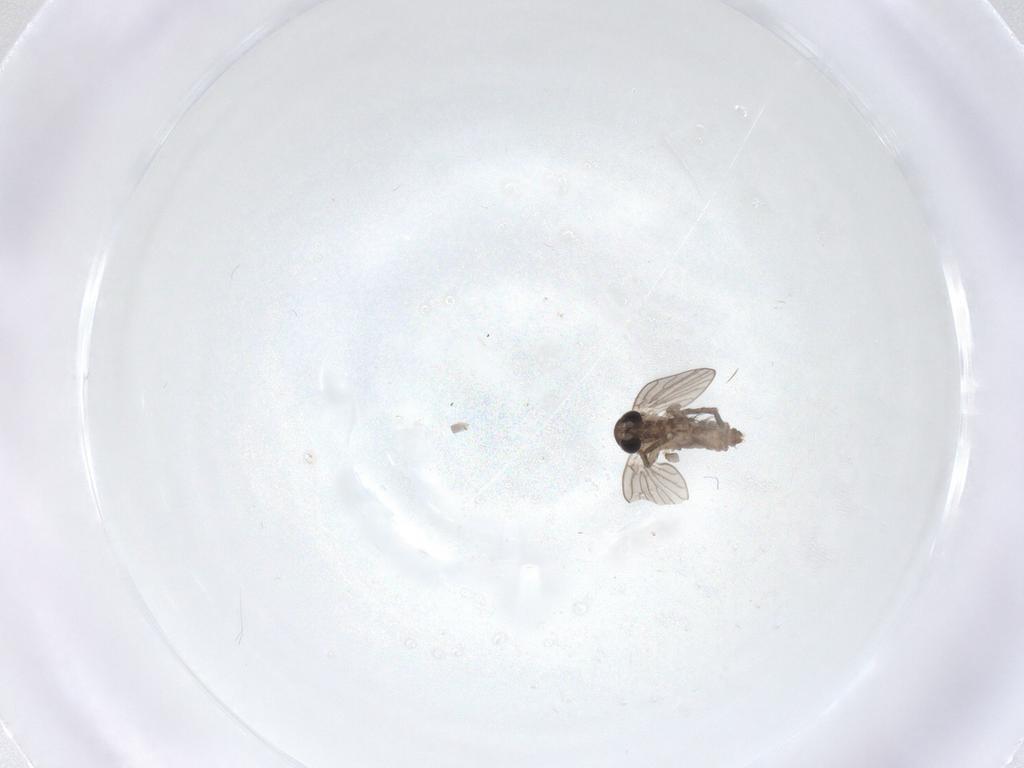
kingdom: Animalia
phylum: Arthropoda
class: Insecta
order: Diptera
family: Psychodidae
